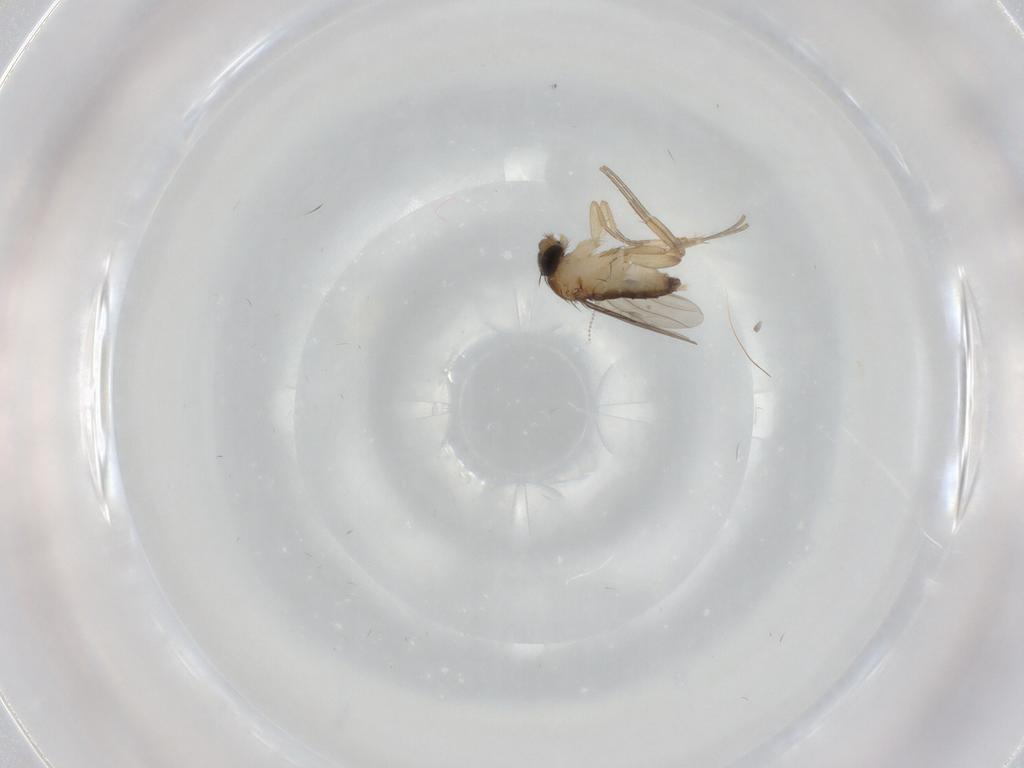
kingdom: Animalia
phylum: Arthropoda
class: Insecta
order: Diptera
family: Phoridae
